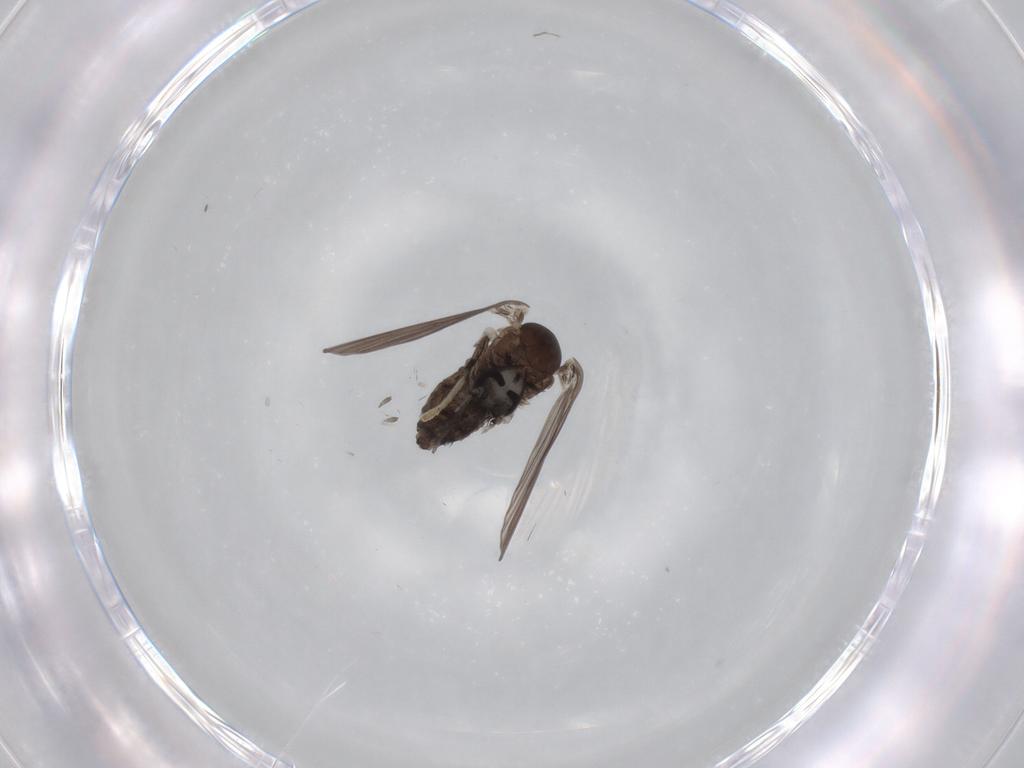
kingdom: Animalia
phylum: Arthropoda
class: Insecta
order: Diptera
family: Psychodidae
